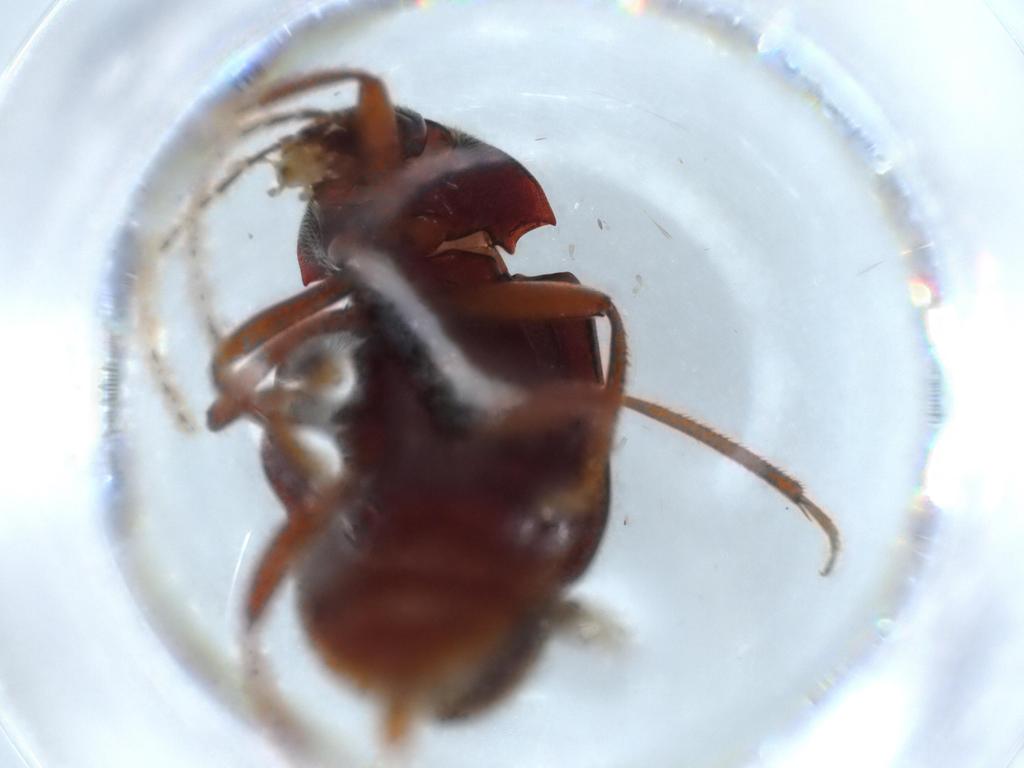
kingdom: Animalia
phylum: Arthropoda
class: Insecta
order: Coleoptera
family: Ptilodactylidae
